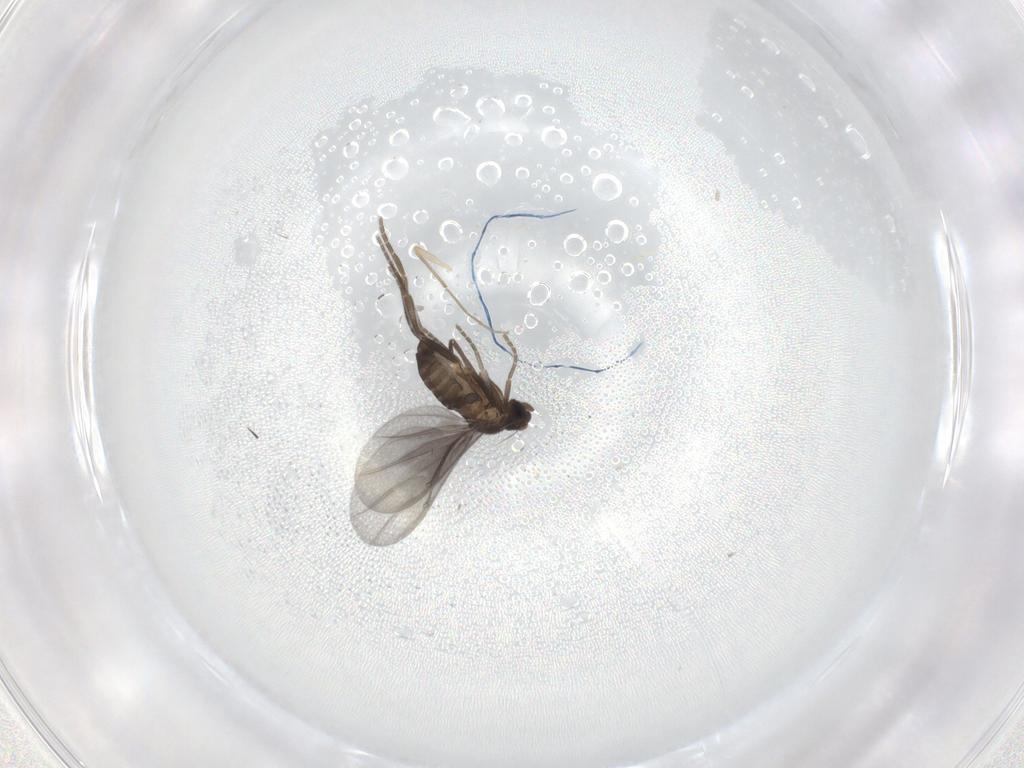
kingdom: Animalia
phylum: Arthropoda
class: Insecta
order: Diptera
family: Phoridae
